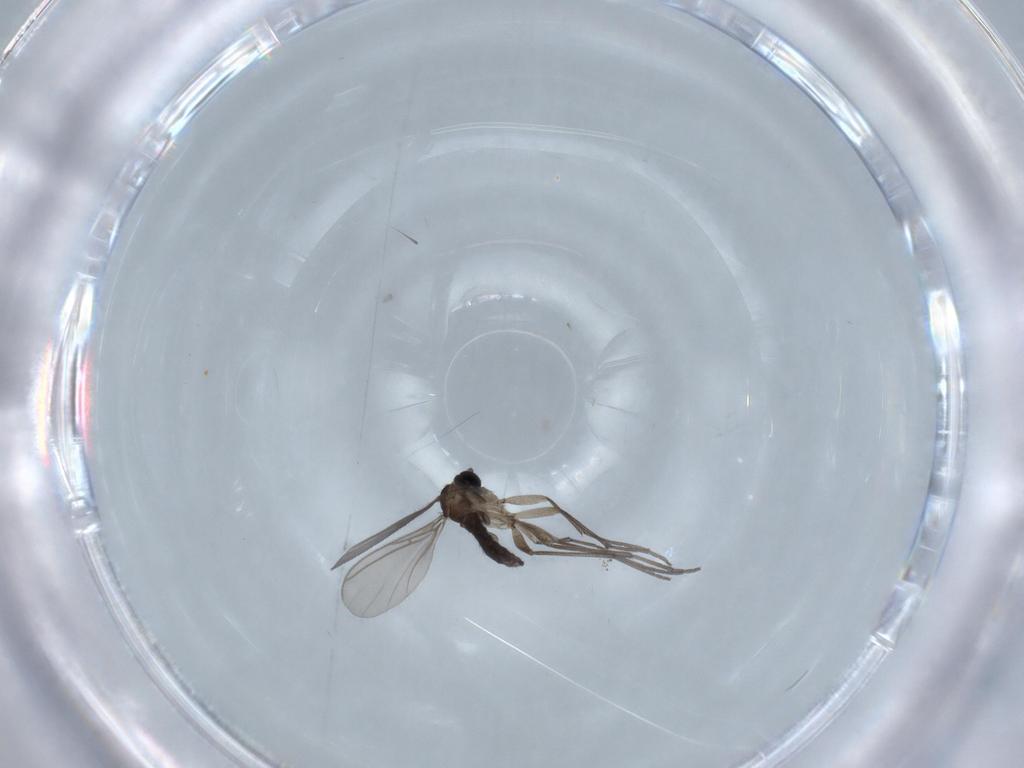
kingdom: Animalia
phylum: Arthropoda
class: Insecta
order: Diptera
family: Sciaridae
